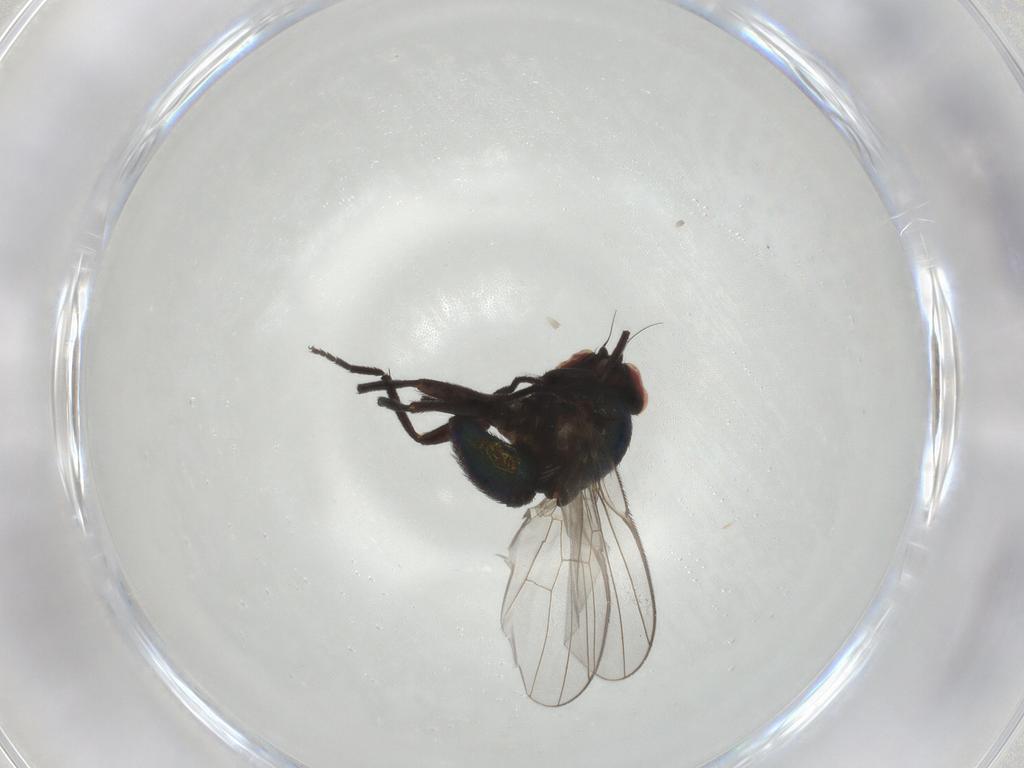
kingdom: Animalia
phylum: Arthropoda
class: Insecta
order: Diptera
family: Agromyzidae
